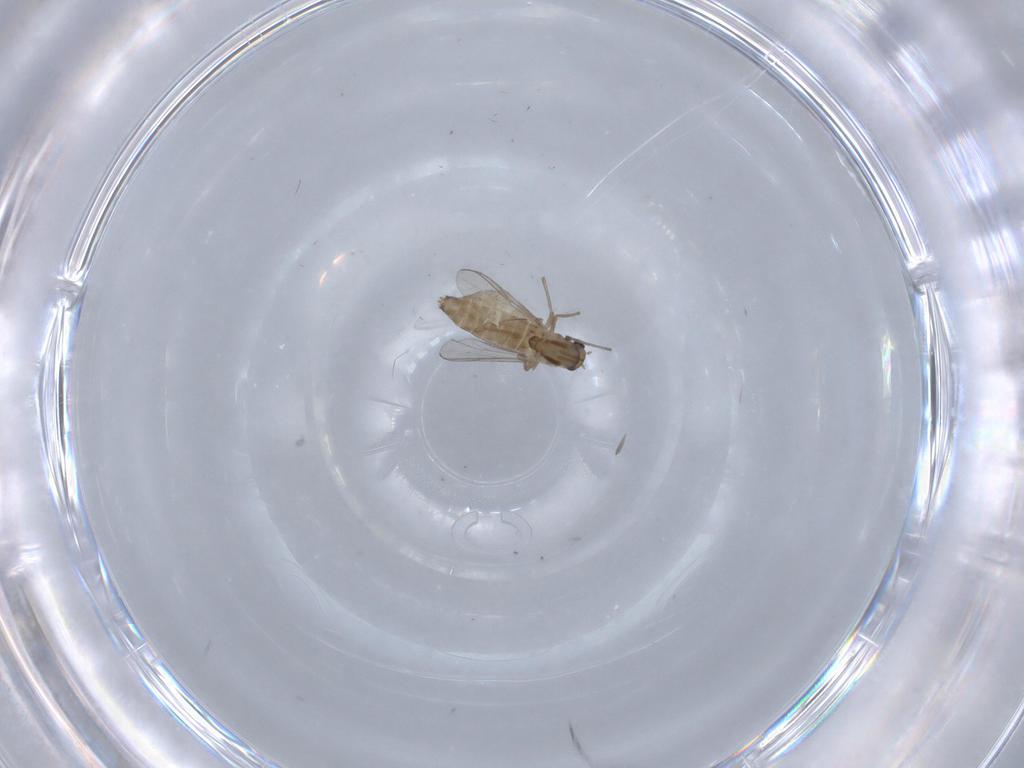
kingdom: Animalia
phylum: Arthropoda
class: Insecta
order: Diptera
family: Chironomidae
